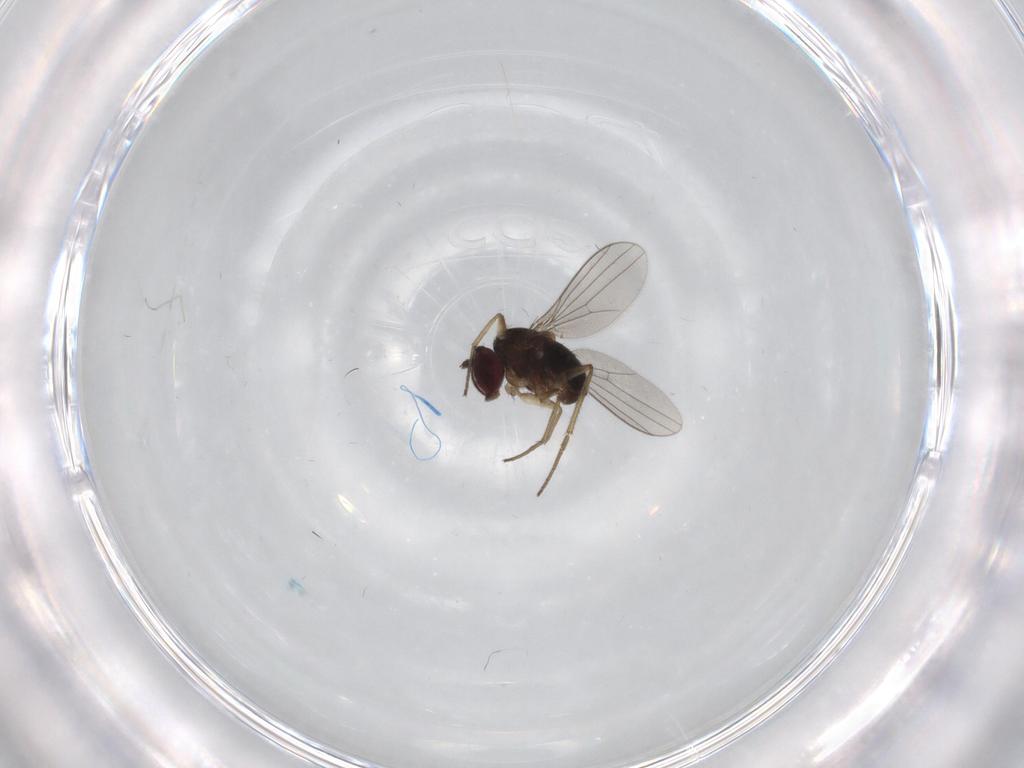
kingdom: Animalia
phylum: Arthropoda
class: Insecta
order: Diptera
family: Dolichopodidae
